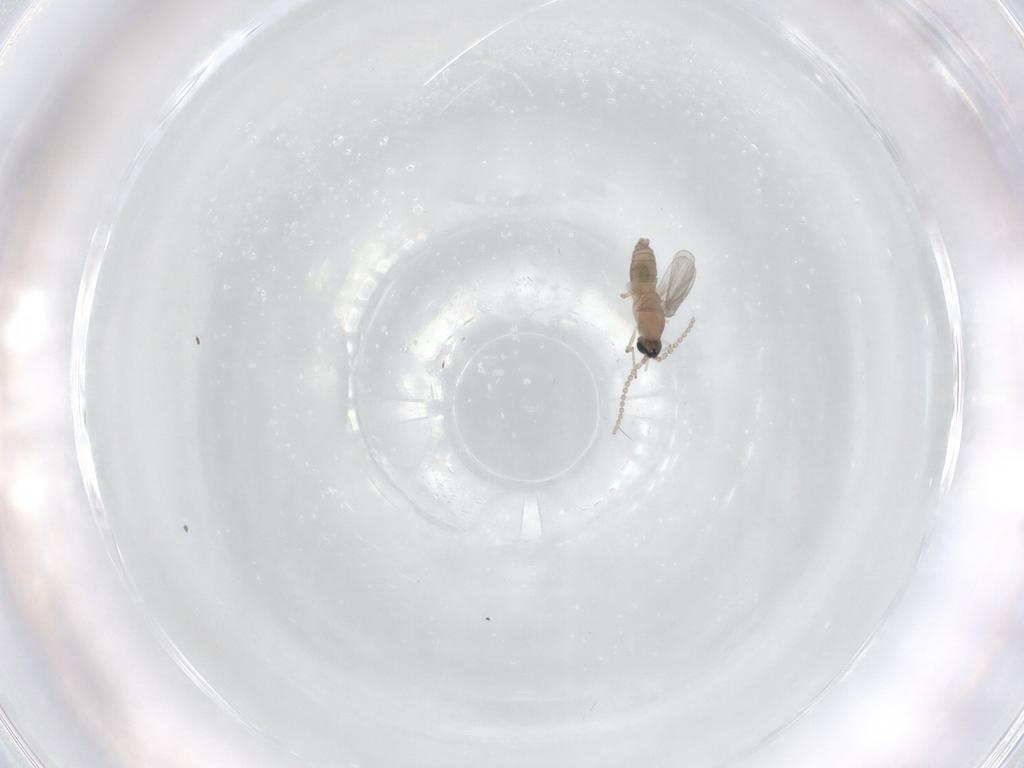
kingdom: Animalia
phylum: Arthropoda
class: Insecta
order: Diptera
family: Cecidomyiidae
